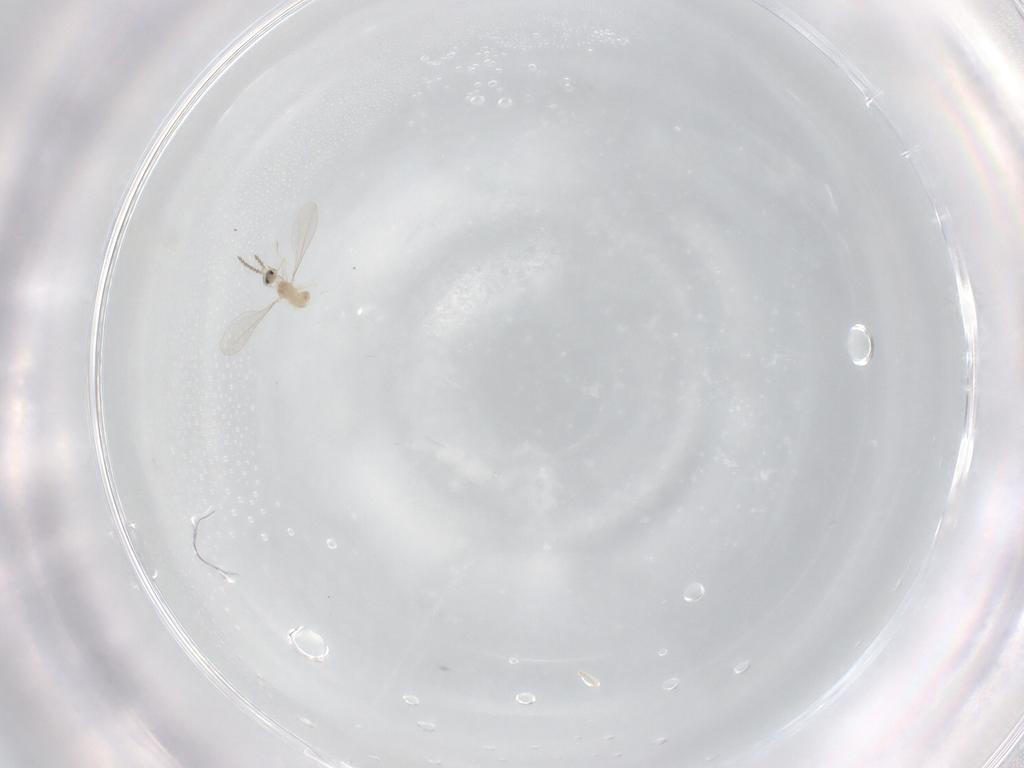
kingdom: Animalia
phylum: Arthropoda
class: Insecta
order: Diptera
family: Psychodidae
